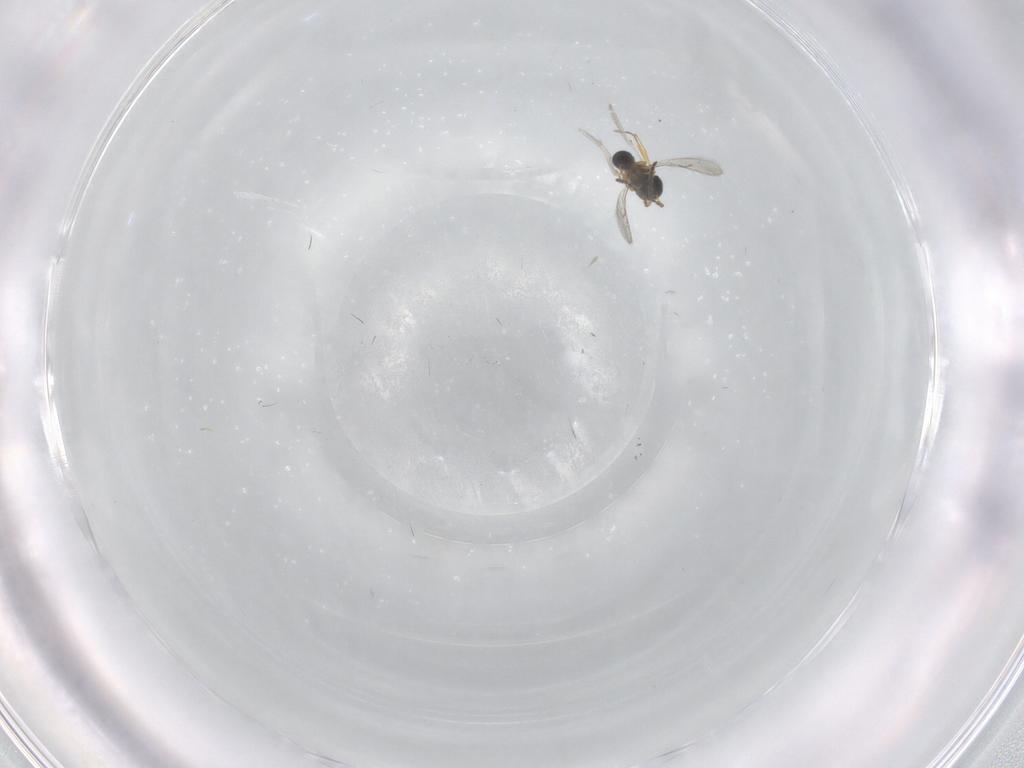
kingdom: Animalia
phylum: Arthropoda
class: Insecta
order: Hymenoptera
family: Scelionidae
